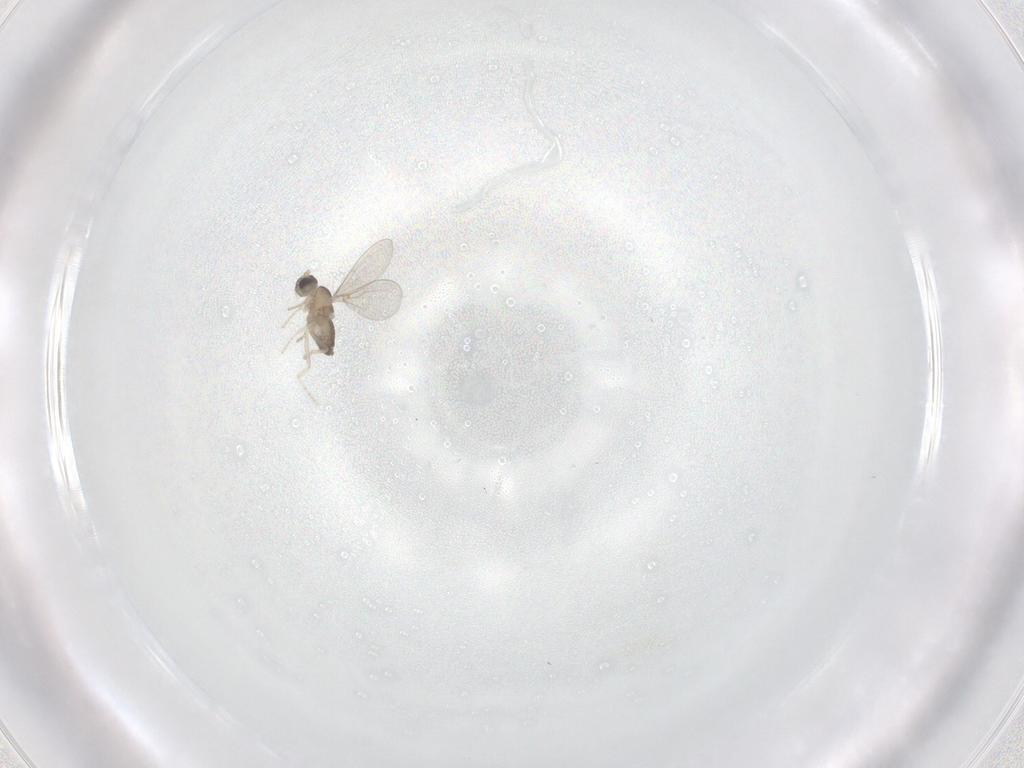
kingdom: Animalia
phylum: Arthropoda
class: Insecta
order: Diptera
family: Cecidomyiidae
